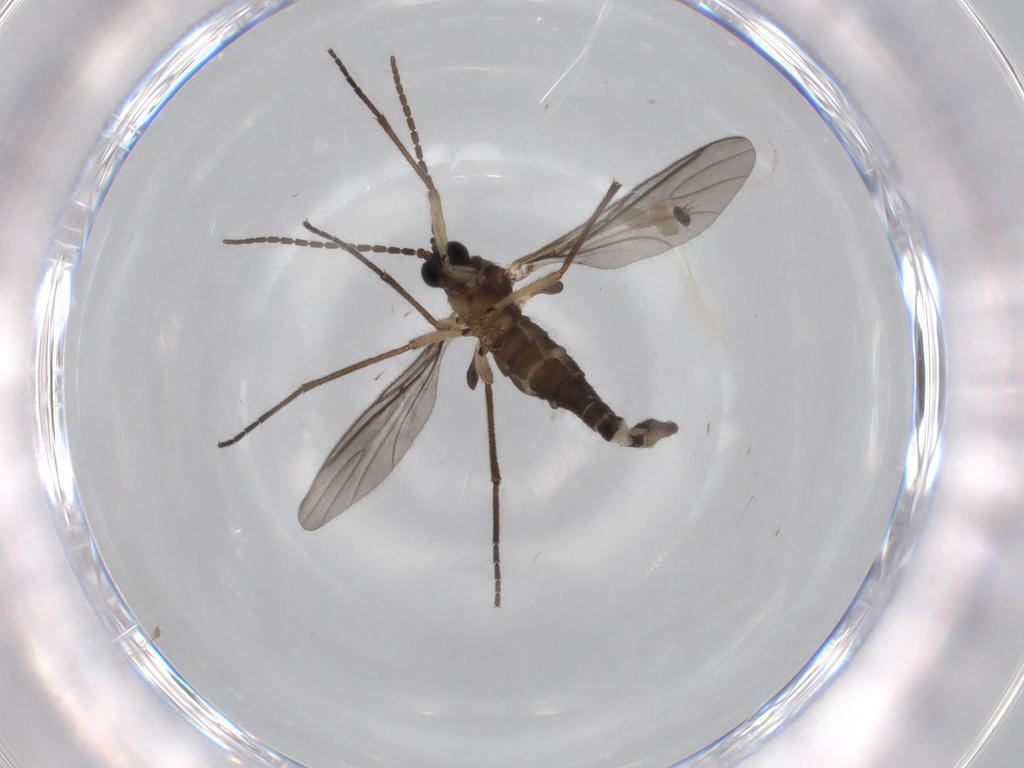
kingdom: Animalia
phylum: Arthropoda
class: Insecta
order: Diptera
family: Cecidomyiidae
